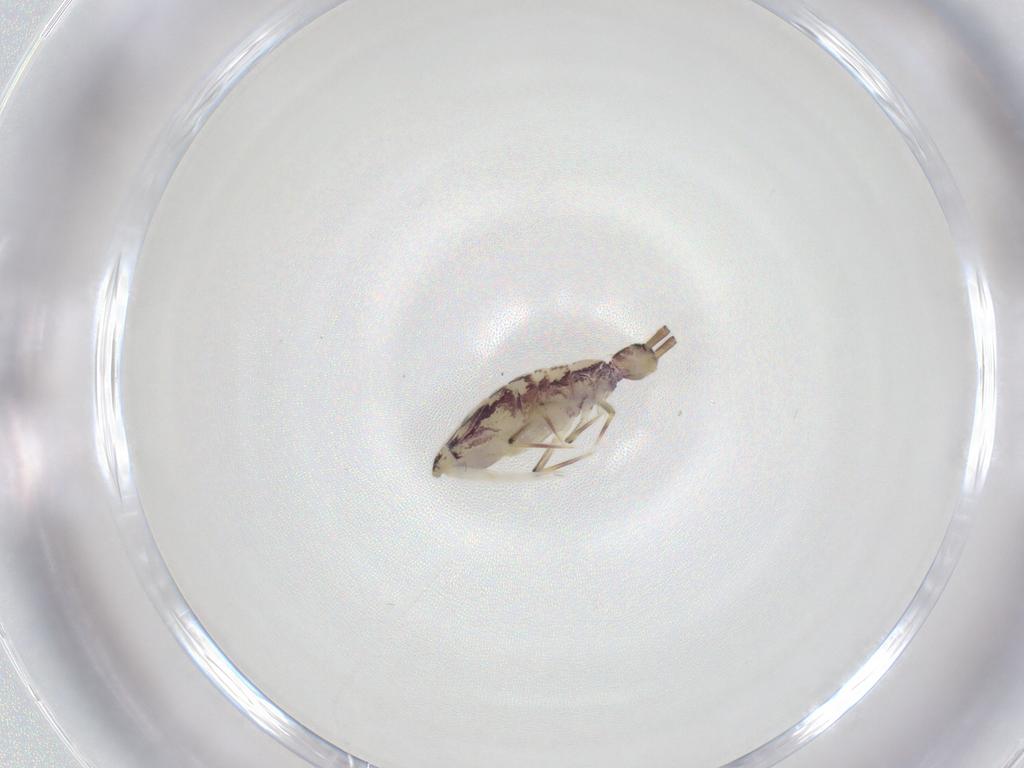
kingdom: Animalia
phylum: Arthropoda
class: Collembola
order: Entomobryomorpha
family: Entomobryidae
